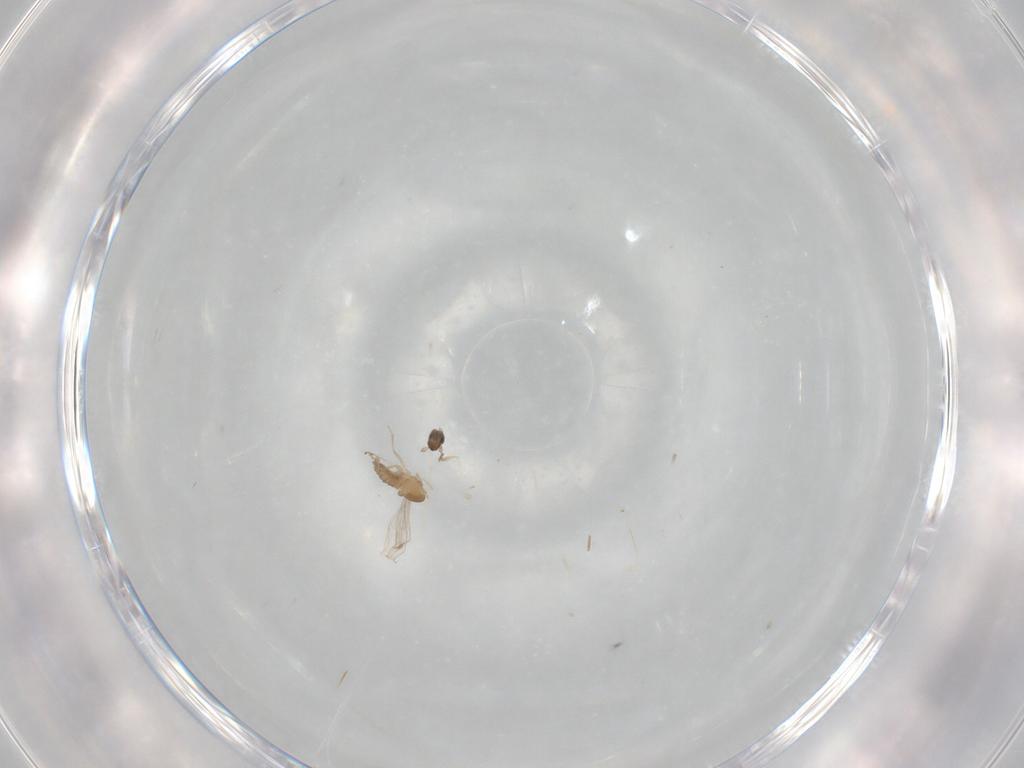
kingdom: Animalia
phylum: Arthropoda
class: Insecta
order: Diptera
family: Cecidomyiidae
